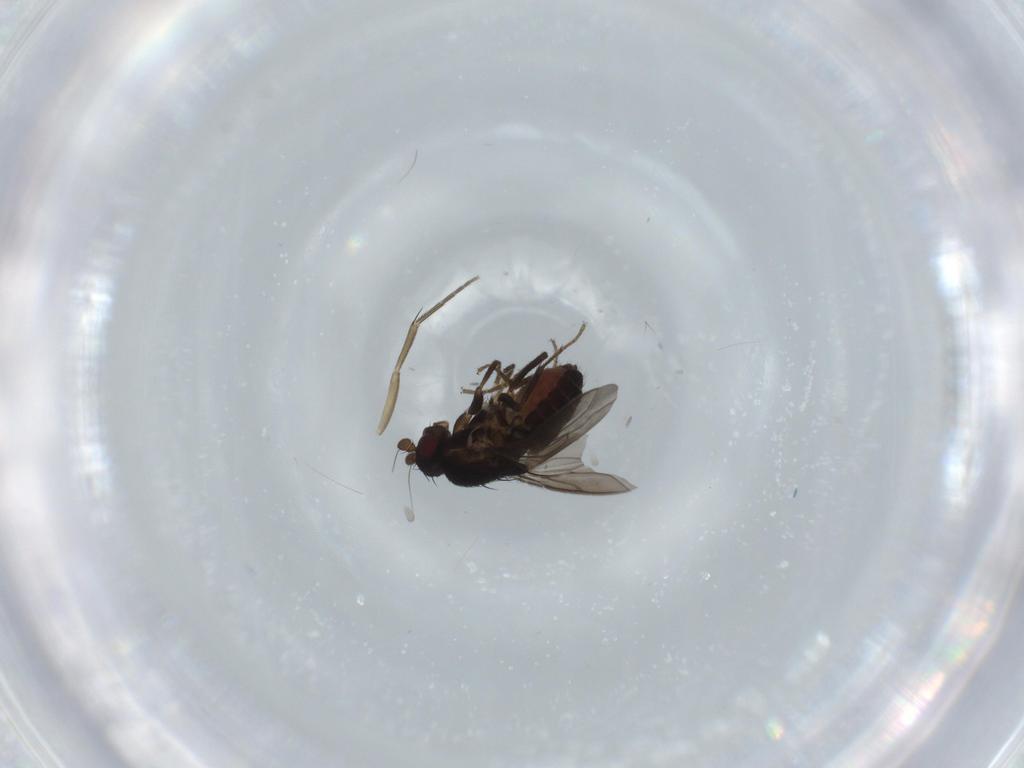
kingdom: Animalia
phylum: Arthropoda
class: Insecta
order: Diptera
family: Sphaeroceridae
